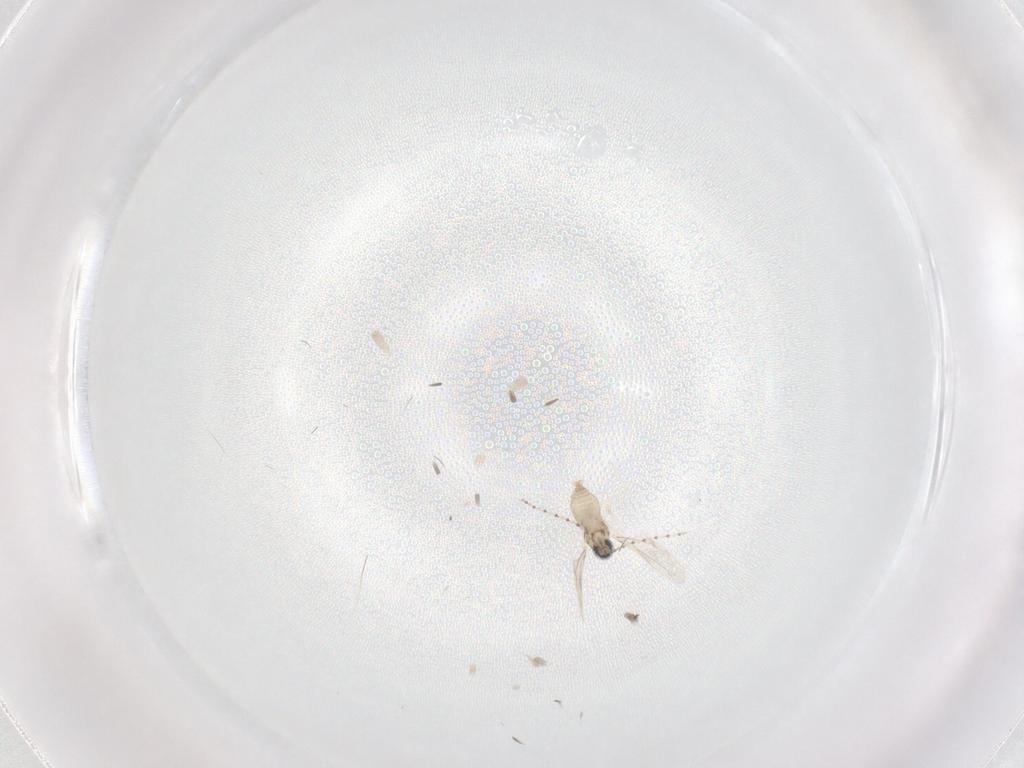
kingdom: Animalia
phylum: Arthropoda
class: Insecta
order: Diptera
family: Cecidomyiidae
